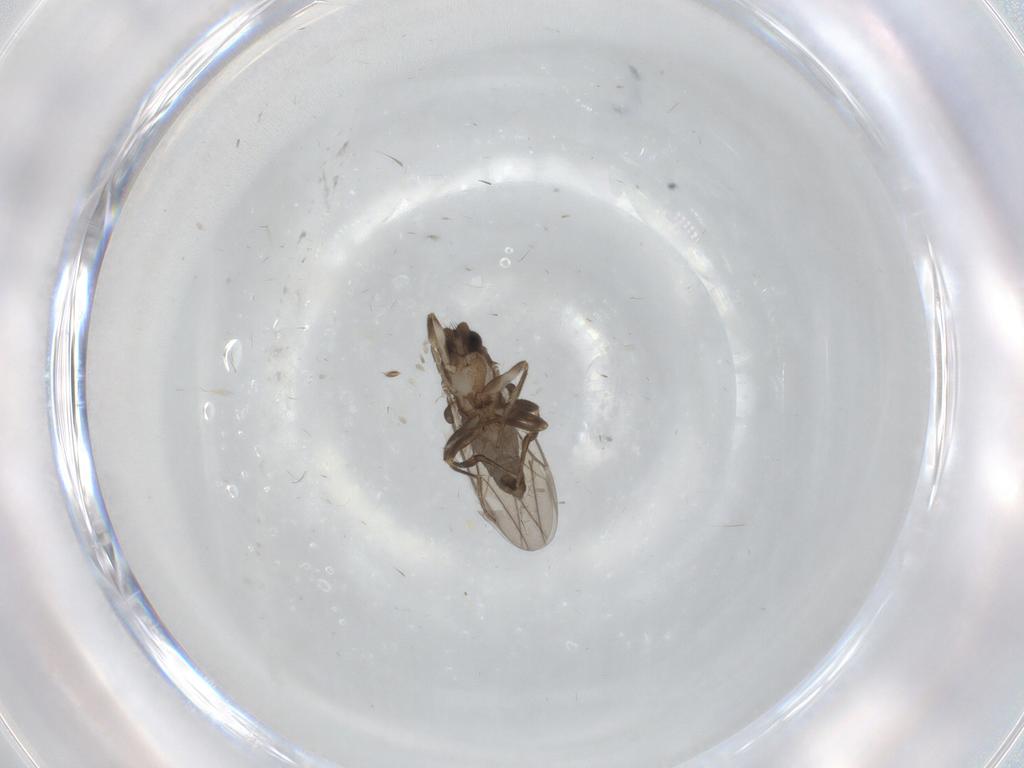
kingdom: Animalia
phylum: Arthropoda
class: Insecta
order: Diptera
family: Phoridae
